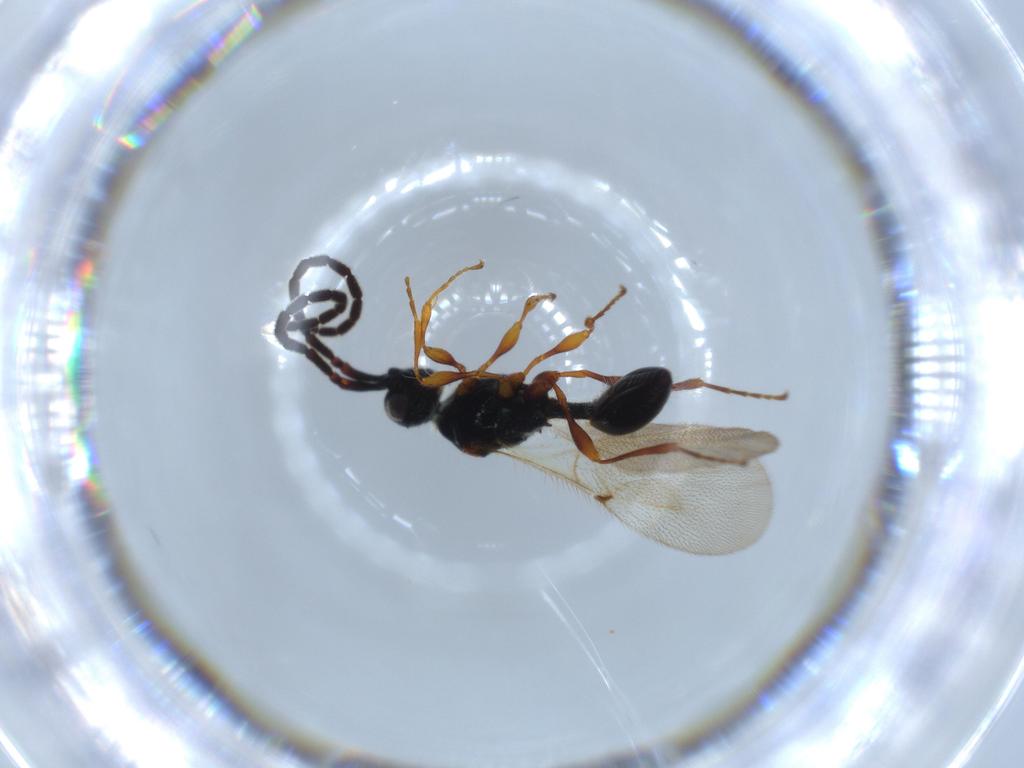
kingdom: Animalia
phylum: Arthropoda
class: Insecta
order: Hymenoptera
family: Diapriidae
